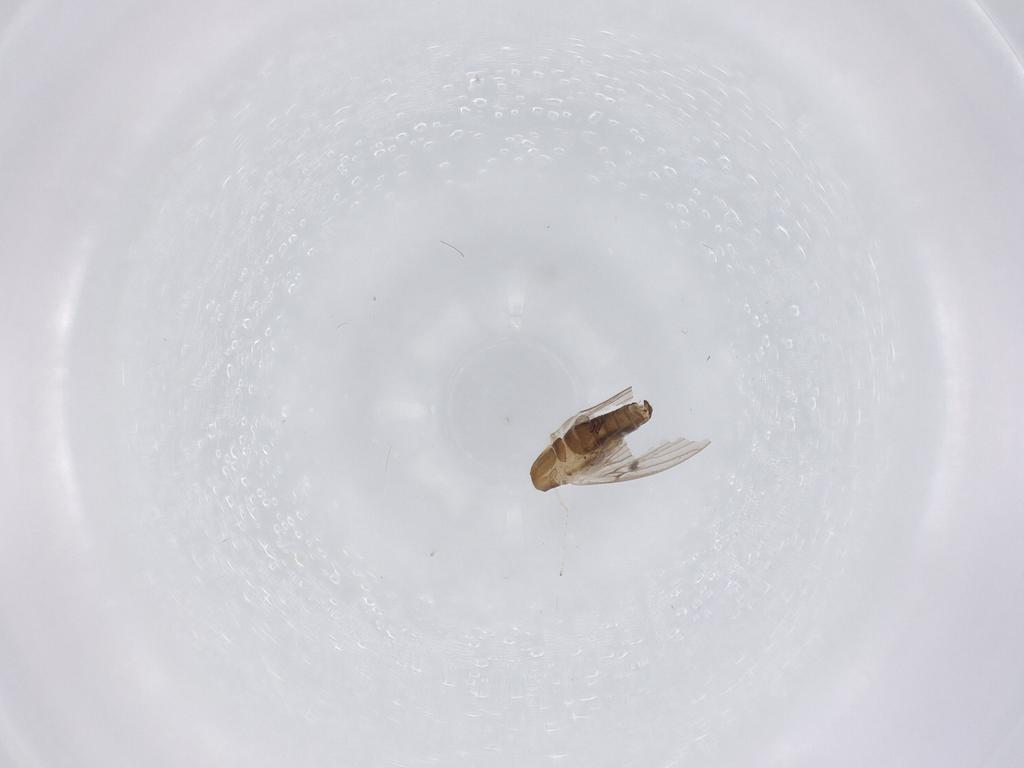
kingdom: Animalia
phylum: Arthropoda
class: Insecta
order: Diptera
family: Psychodidae
